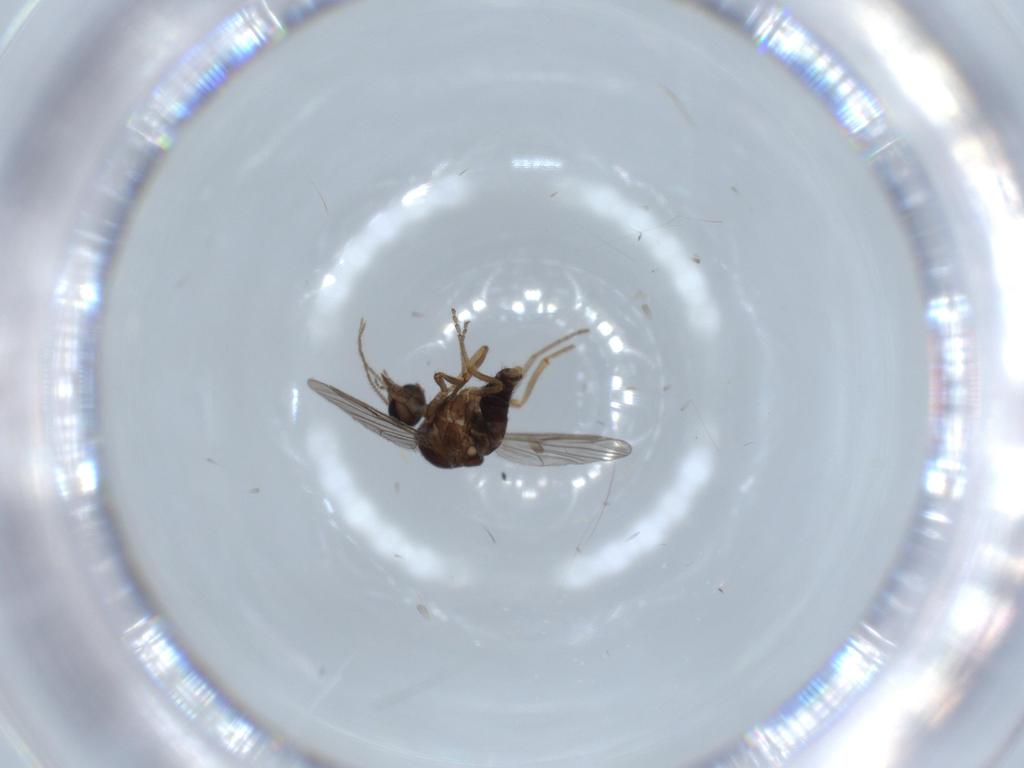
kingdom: Animalia
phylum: Arthropoda
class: Insecta
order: Diptera
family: Ceratopogonidae
